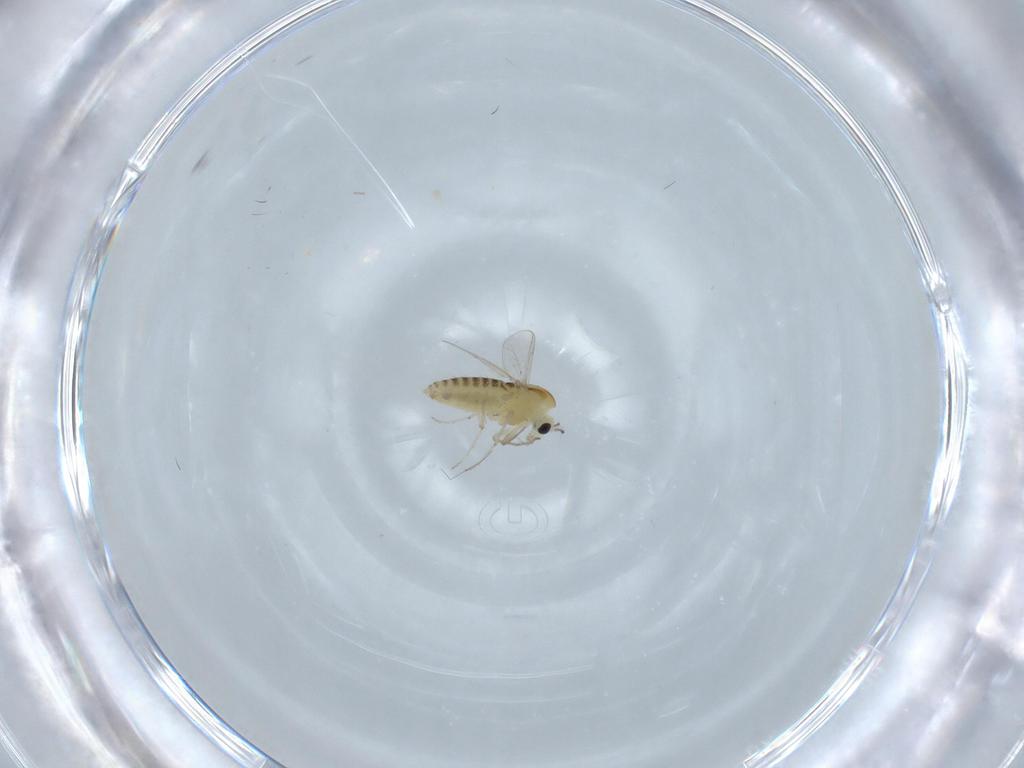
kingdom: Animalia
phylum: Arthropoda
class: Insecta
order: Diptera
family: Chironomidae
